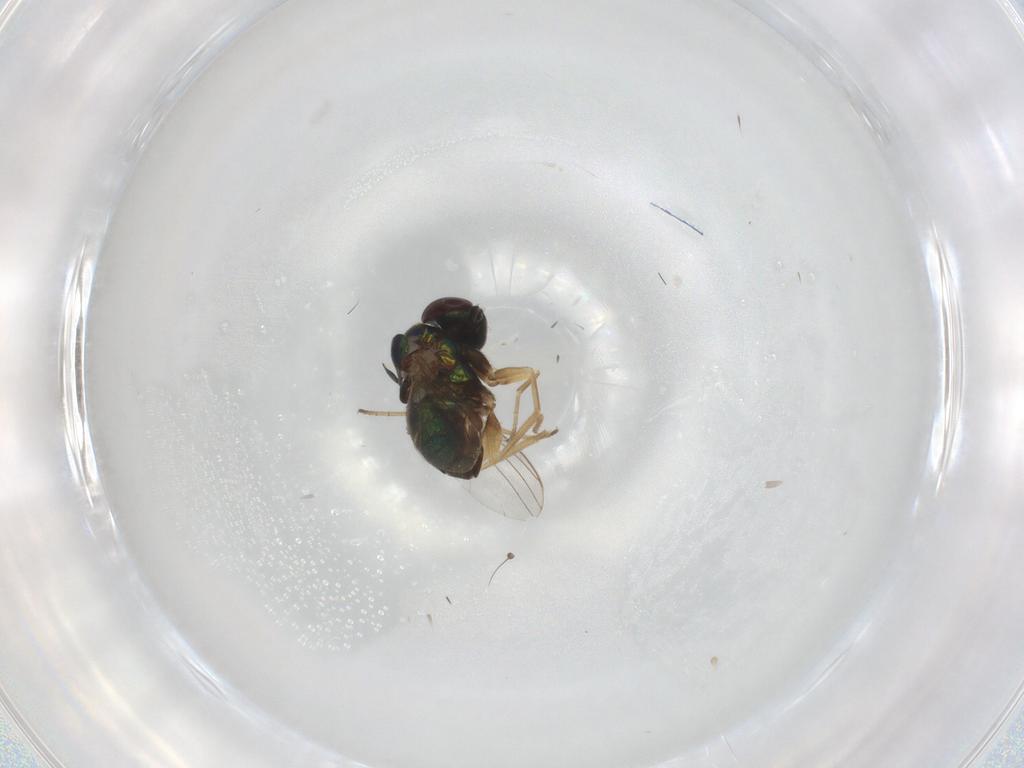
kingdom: Animalia
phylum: Arthropoda
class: Insecta
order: Diptera
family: Dolichopodidae
